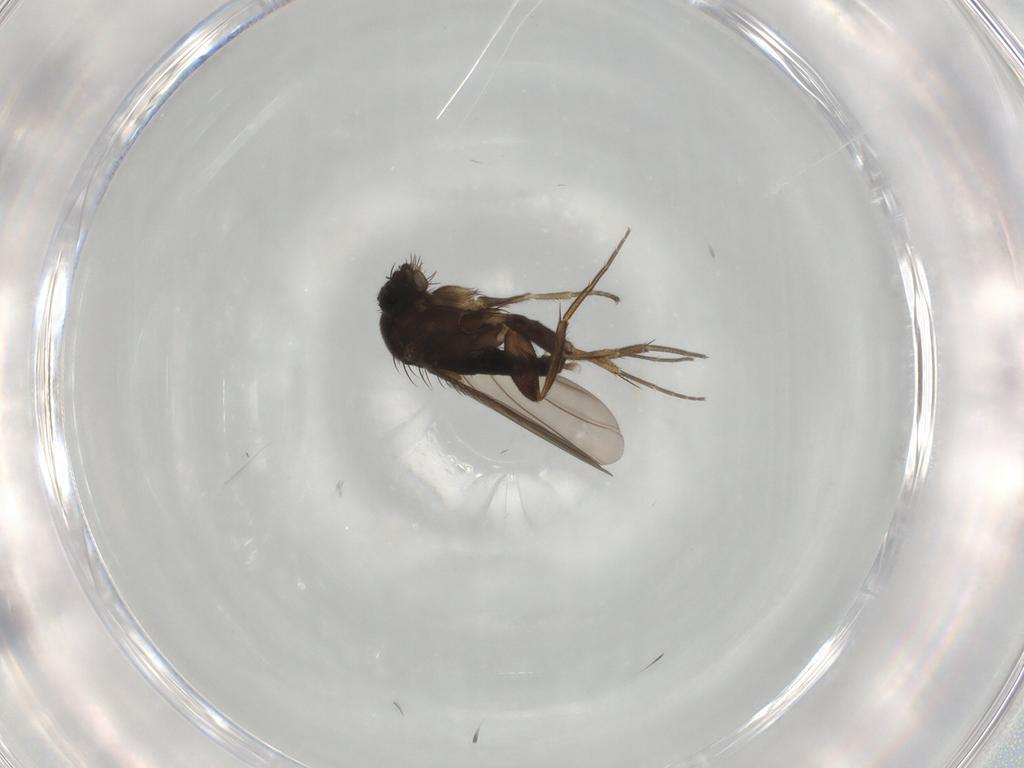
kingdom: Animalia
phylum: Arthropoda
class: Insecta
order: Diptera
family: Phoridae
